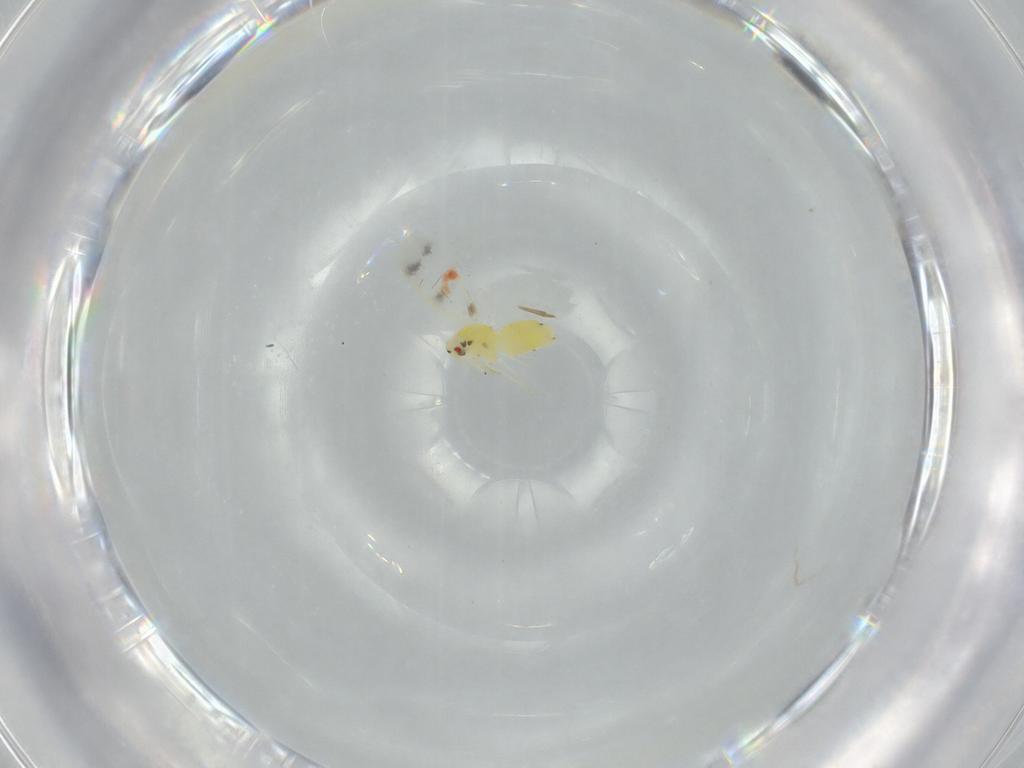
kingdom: Animalia
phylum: Arthropoda
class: Insecta
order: Hemiptera
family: Aleyrodidae
